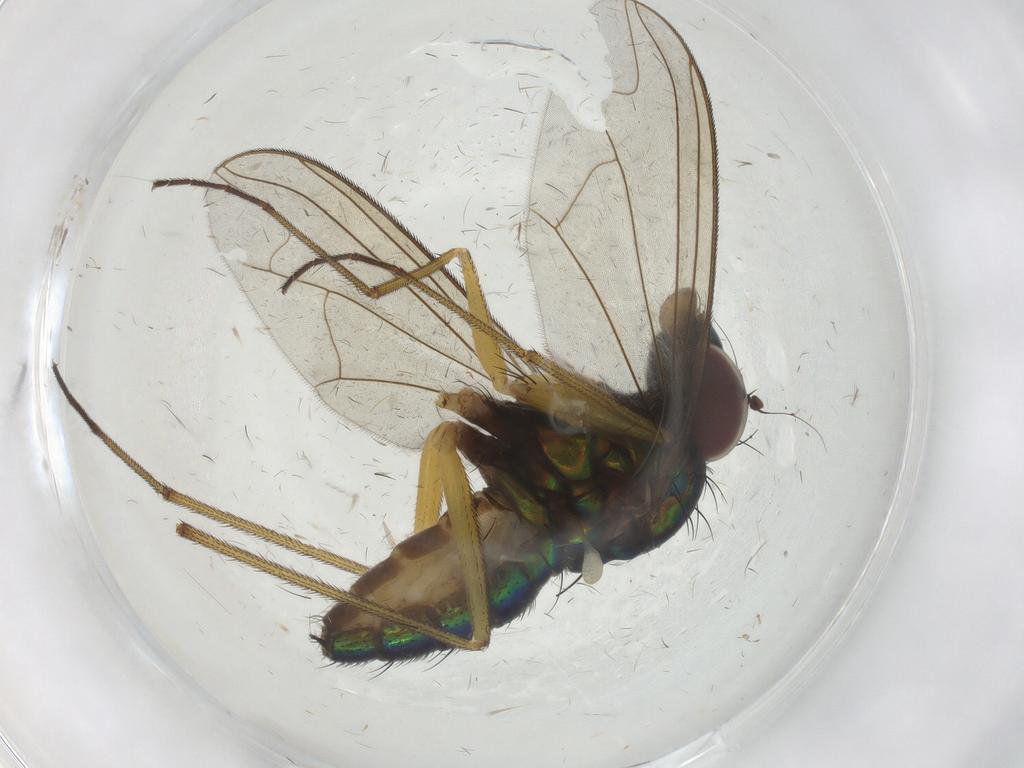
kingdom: Animalia
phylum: Arthropoda
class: Insecta
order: Diptera
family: Dolichopodidae
